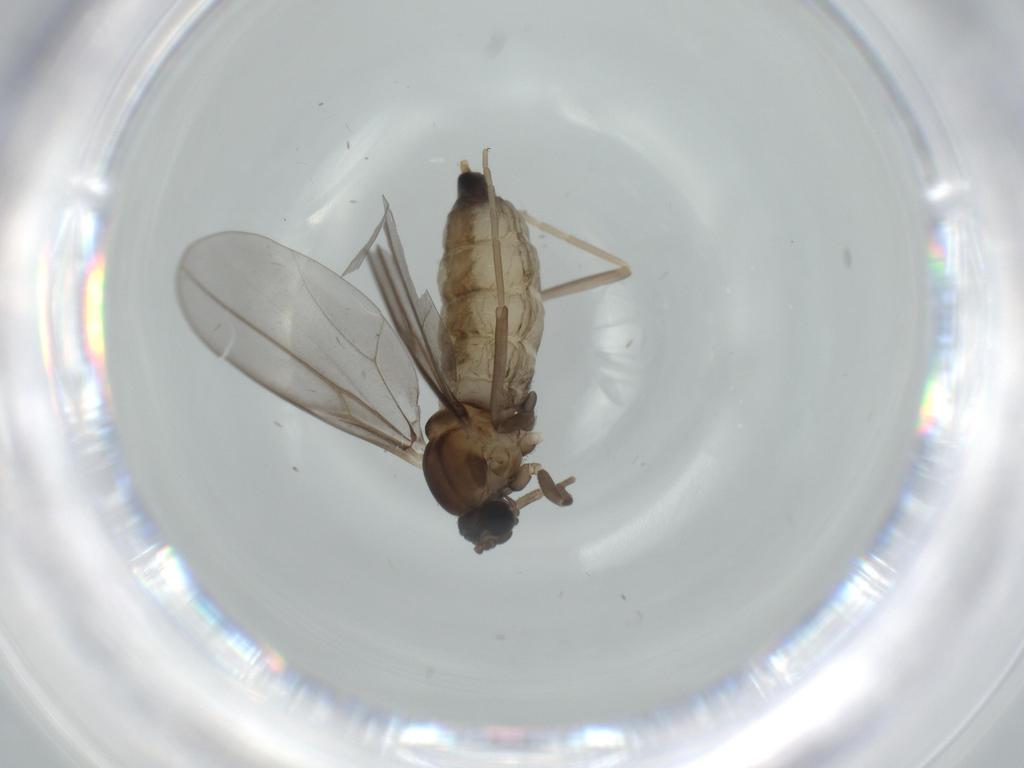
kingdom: Animalia
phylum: Arthropoda
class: Insecta
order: Diptera
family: Cecidomyiidae
